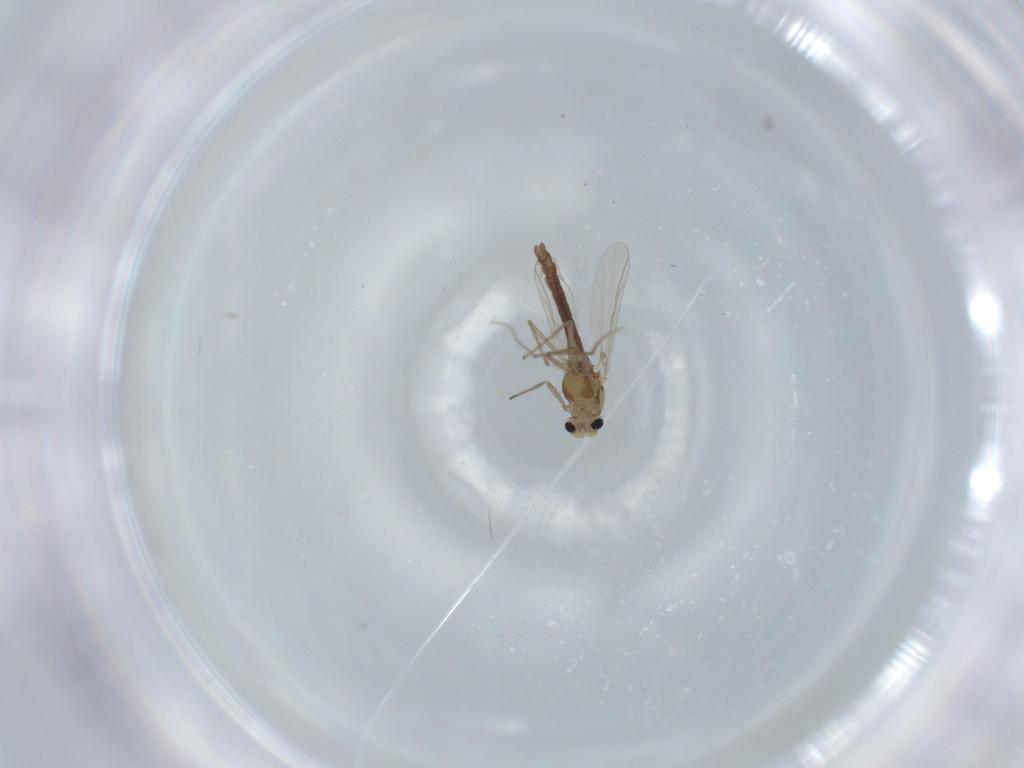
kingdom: Animalia
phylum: Arthropoda
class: Insecta
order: Diptera
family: Chironomidae
